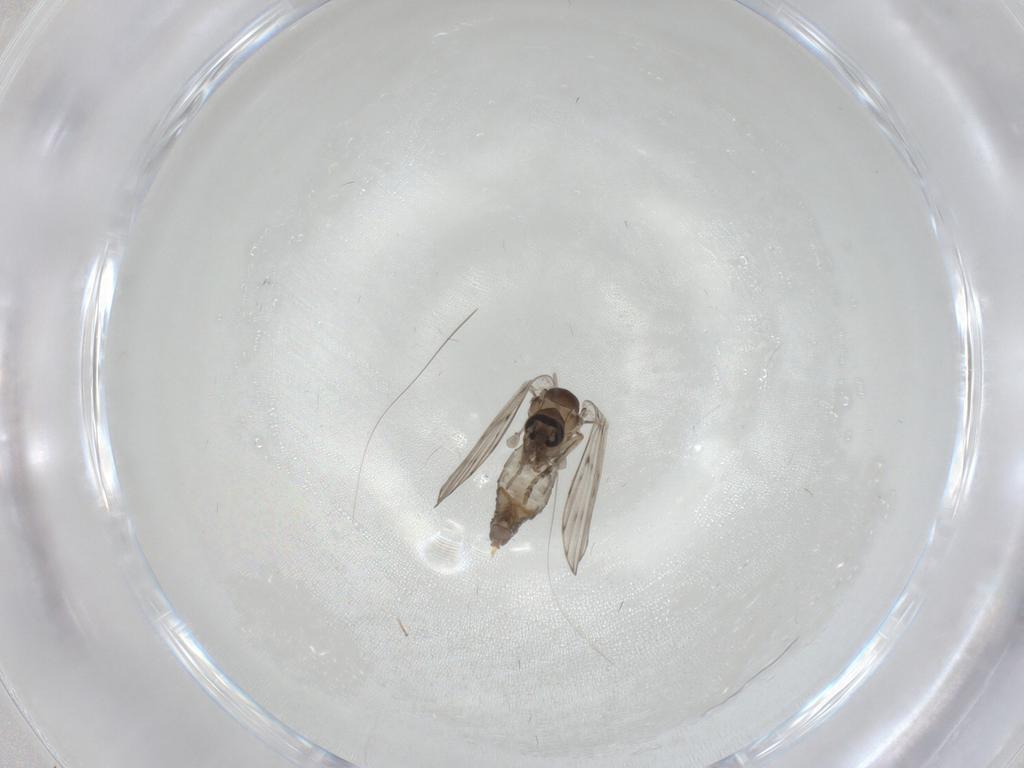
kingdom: Animalia
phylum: Arthropoda
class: Insecta
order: Diptera
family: Psychodidae
